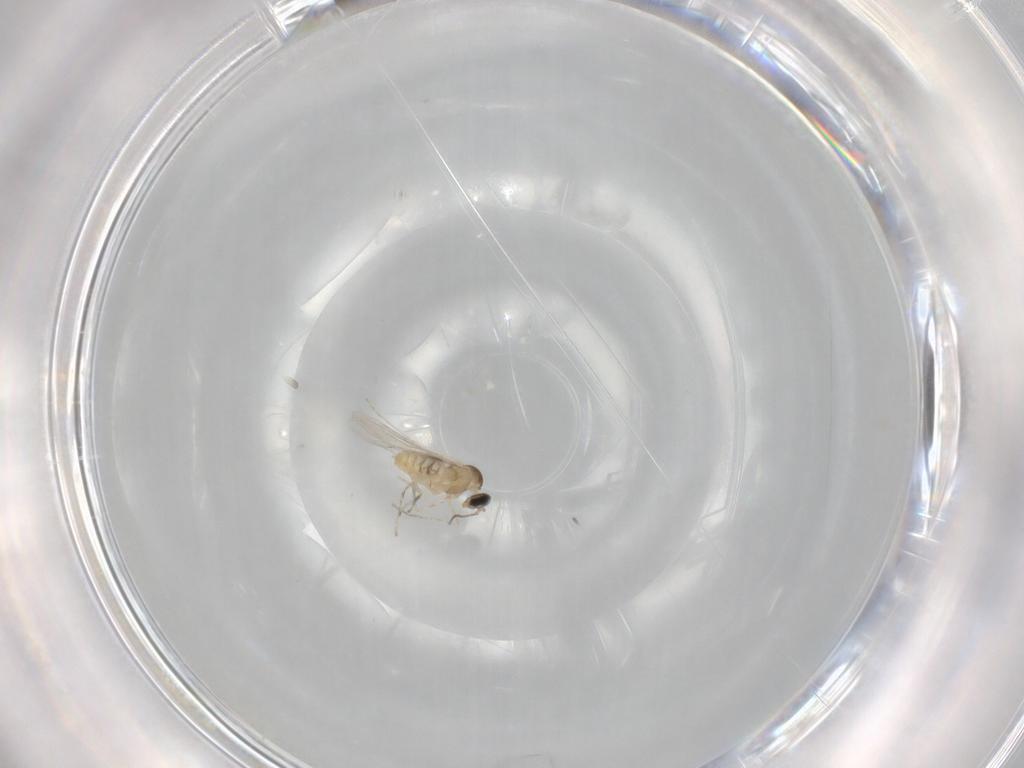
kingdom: Animalia
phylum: Arthropoda
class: Insecta
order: Diptera
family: Cecidomyiidae
